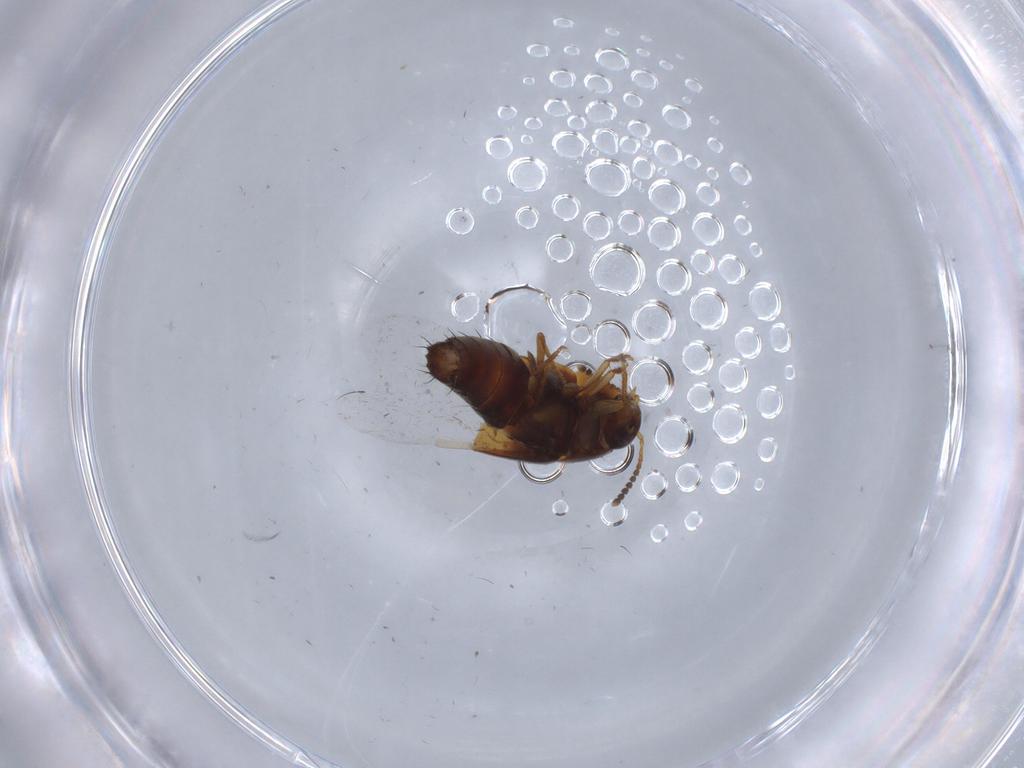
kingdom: Animalia
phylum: Arthropoda
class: Insecta
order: Coleoptera
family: Staphylinidae
